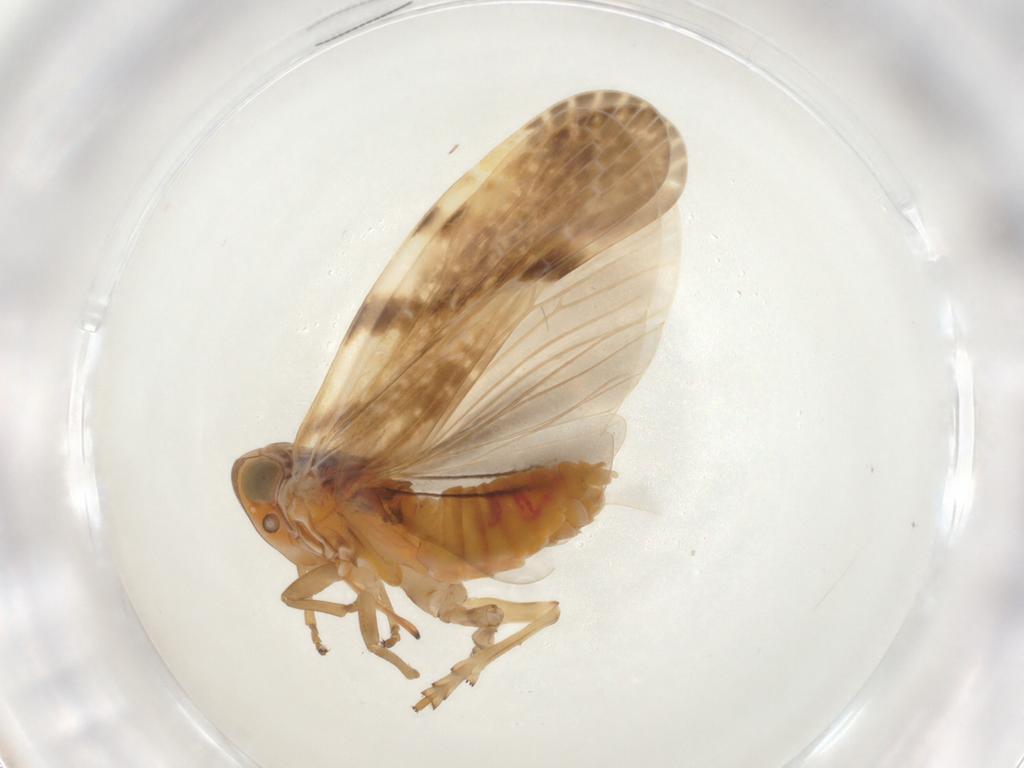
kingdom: Animalia
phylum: Arthropoda
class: Insecta
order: Hemiptera
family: Achilidae
